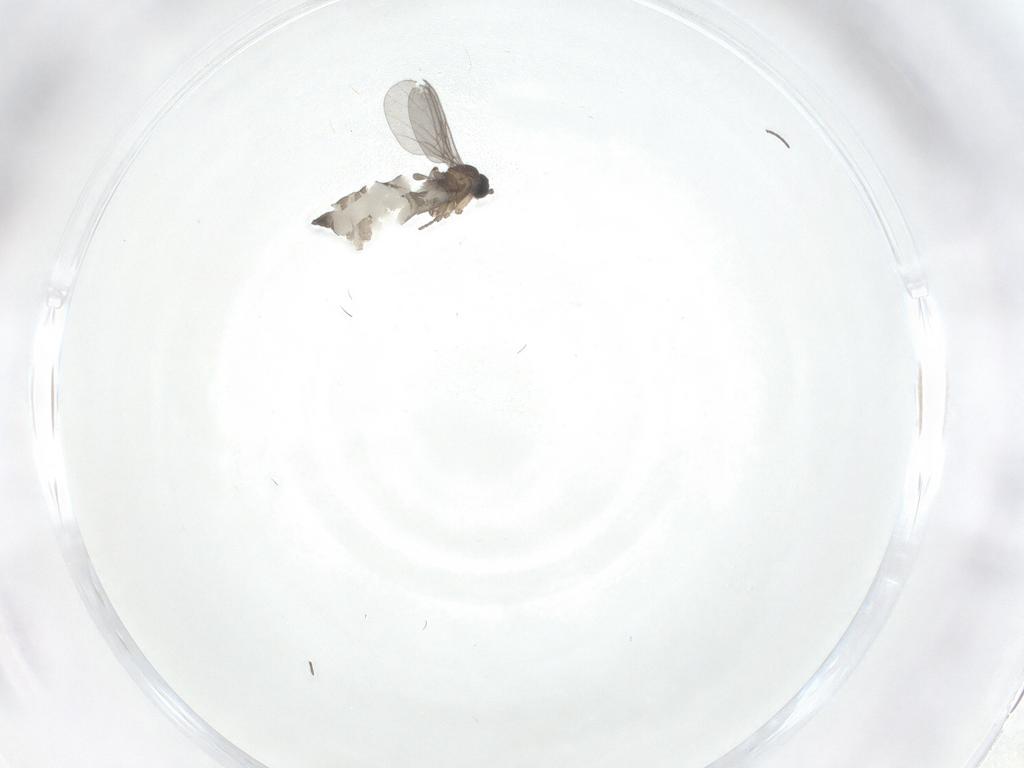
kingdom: Animalia
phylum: Arthropoda
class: Insecta
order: Diptera
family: Sciaridae
